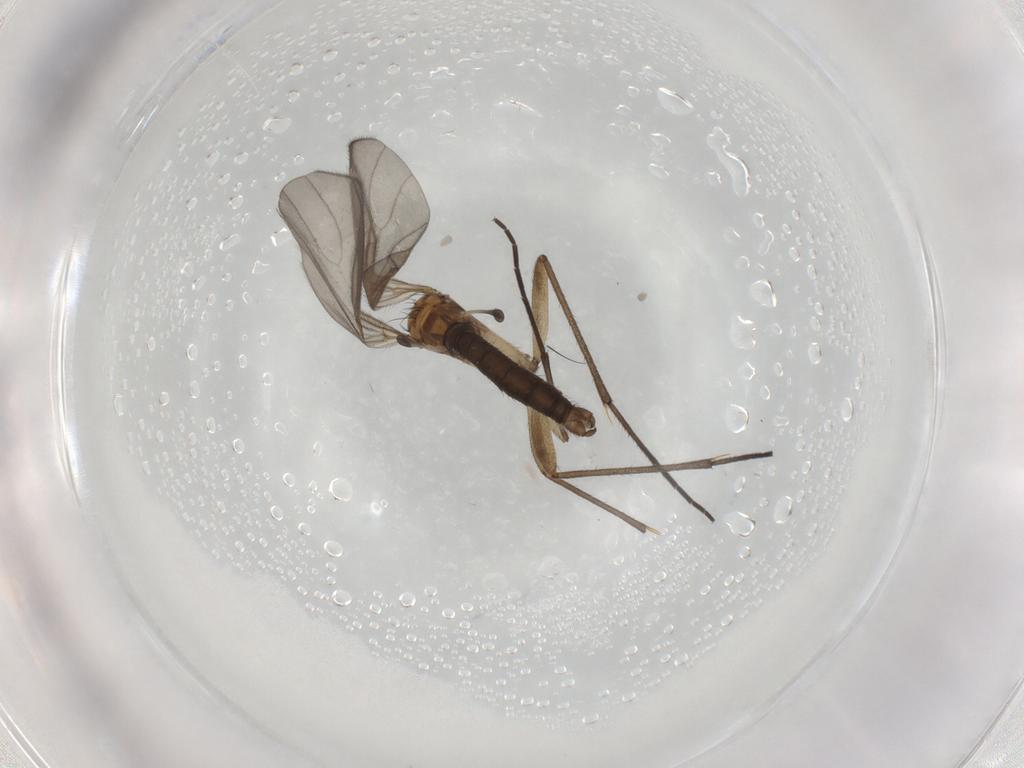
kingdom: Animalia
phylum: Arthropoda
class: Insecta
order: Diptera
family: Sciaridae
